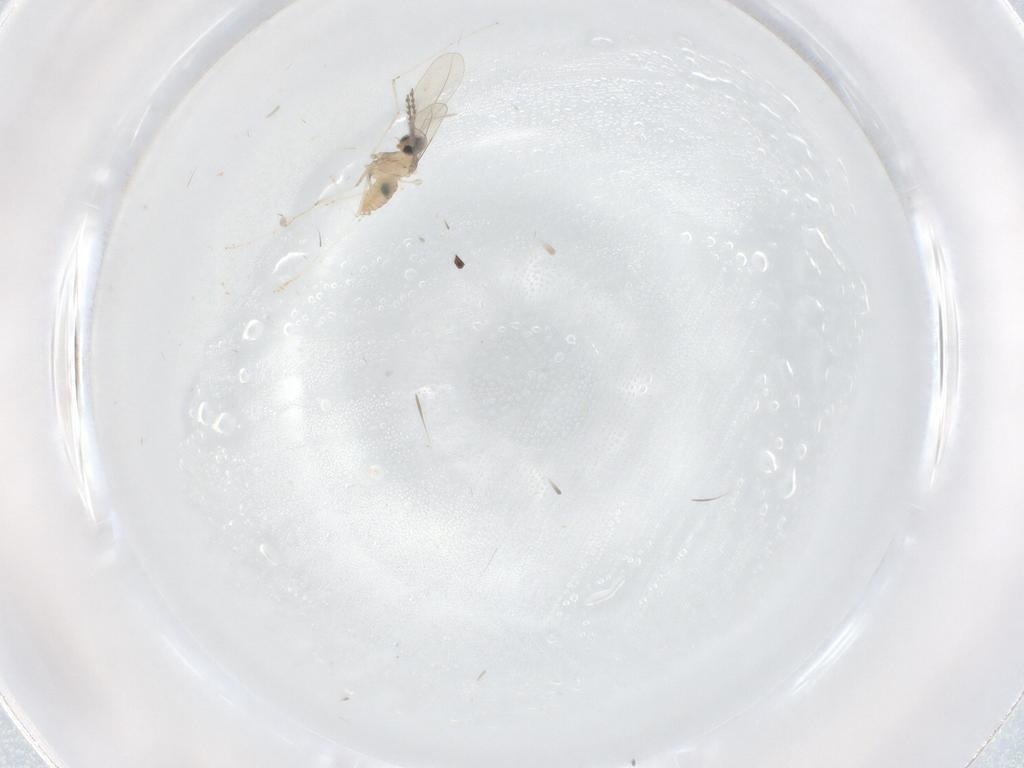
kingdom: Animalia
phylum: Arthropoda
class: Insecta
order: Diptera
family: Cecidomyiidae
